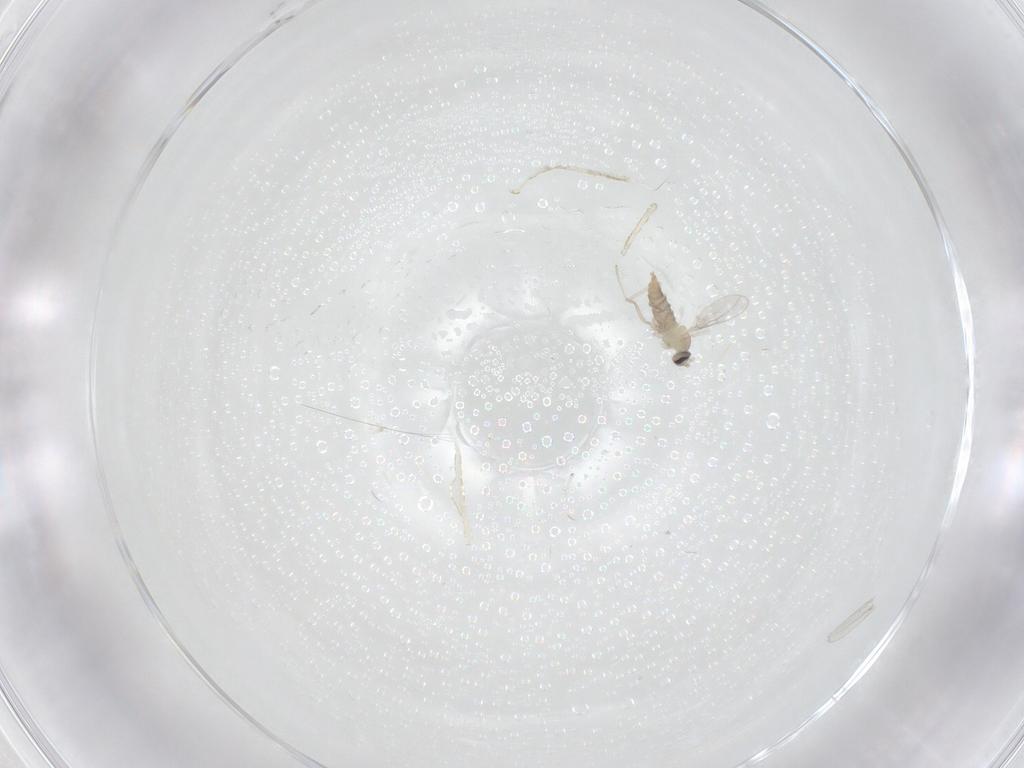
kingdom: Animalia
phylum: Arthropoda
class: Insecta
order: Diptera
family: Cecidomyiidae
